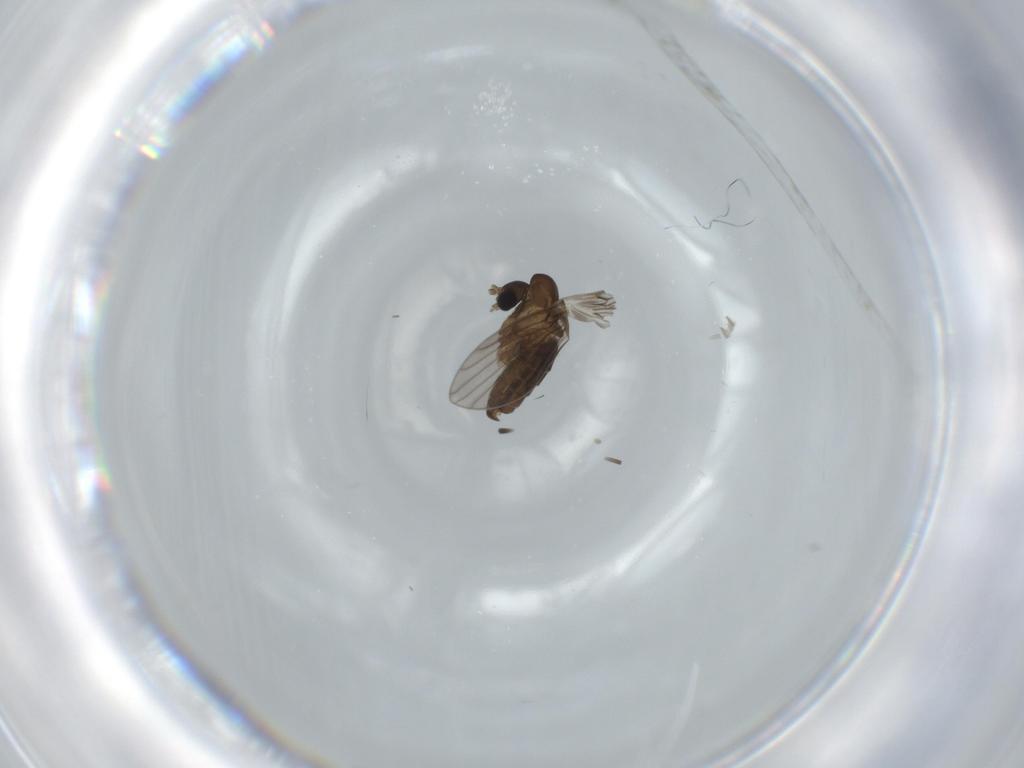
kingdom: Animalia
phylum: Arthropoda
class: Insecta
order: Diptera
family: Psychodidae
